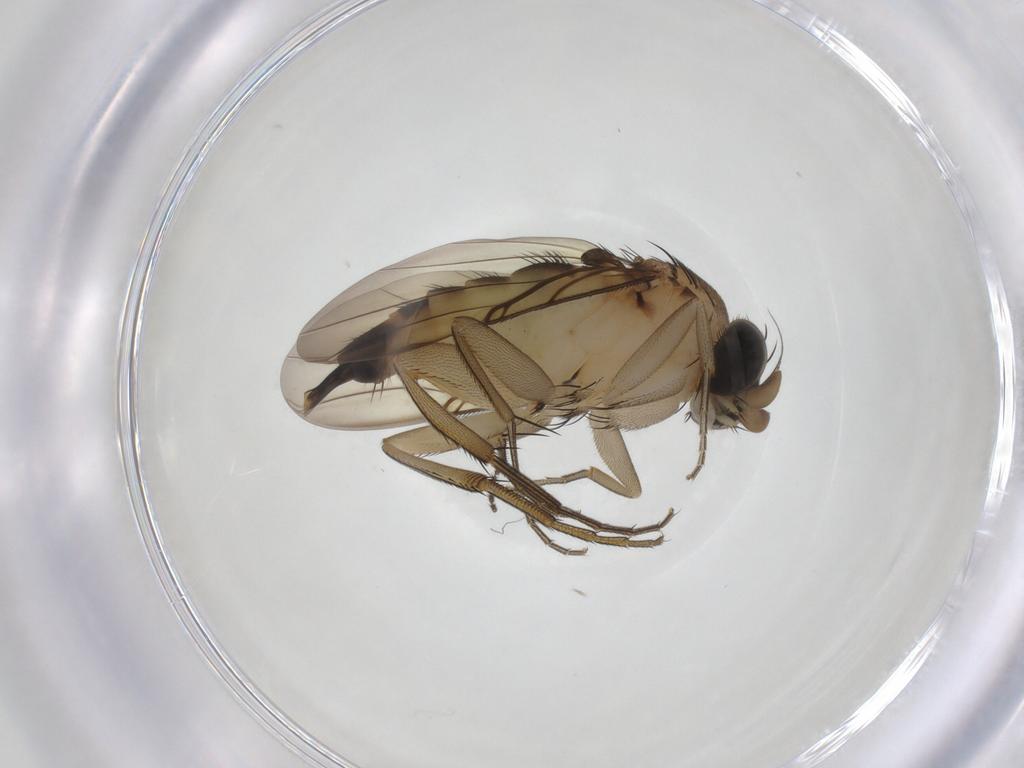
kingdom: Animalia
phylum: Arthropoda
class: Insecta
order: Diptera
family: Phoridae
